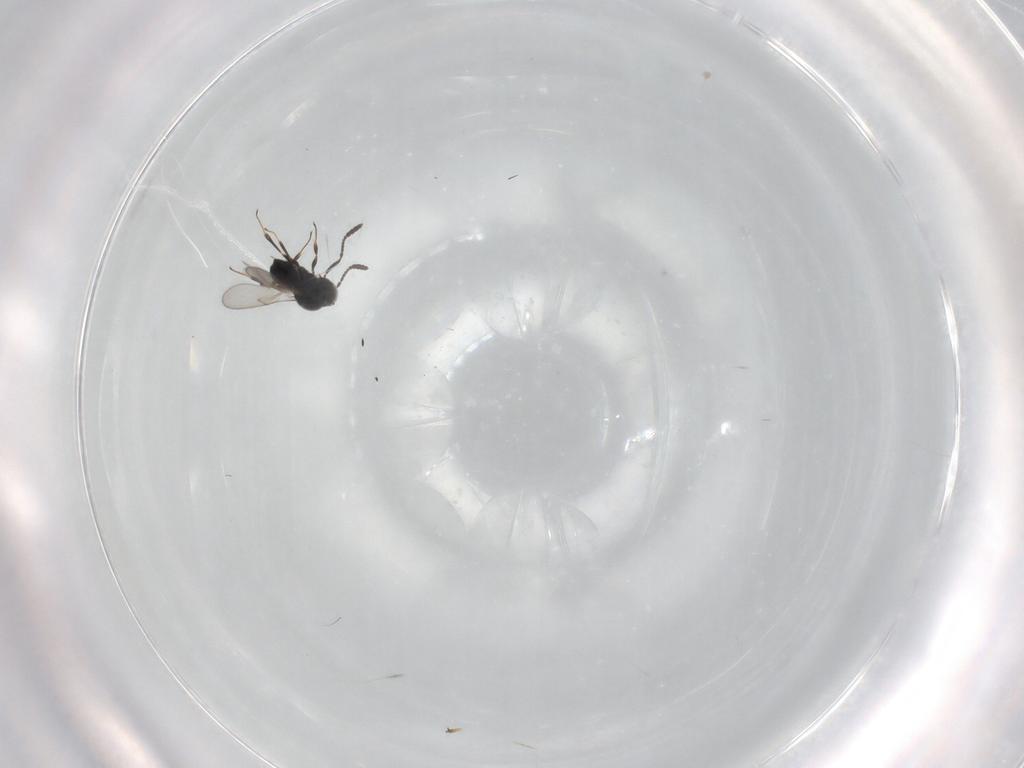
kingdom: Animalia
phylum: Arthropoda
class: Insecta
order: Hymenoptera
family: Scelionidae
